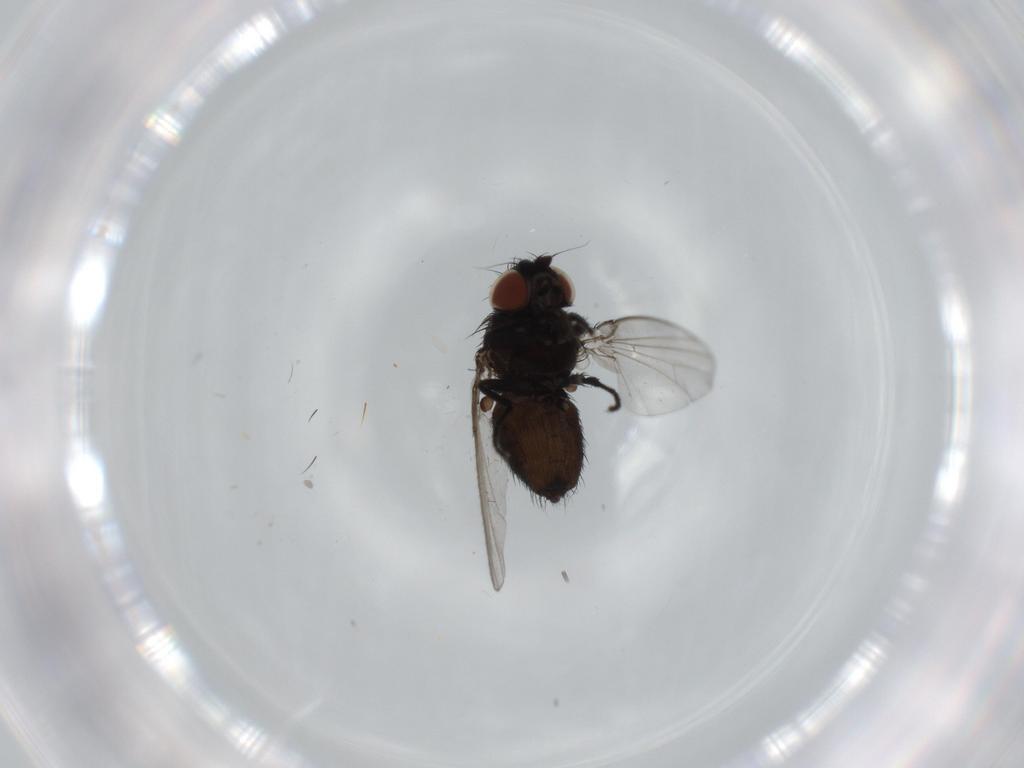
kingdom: Animalia
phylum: Arthropoda
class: Insecta
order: Diptera
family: Milichiidae
